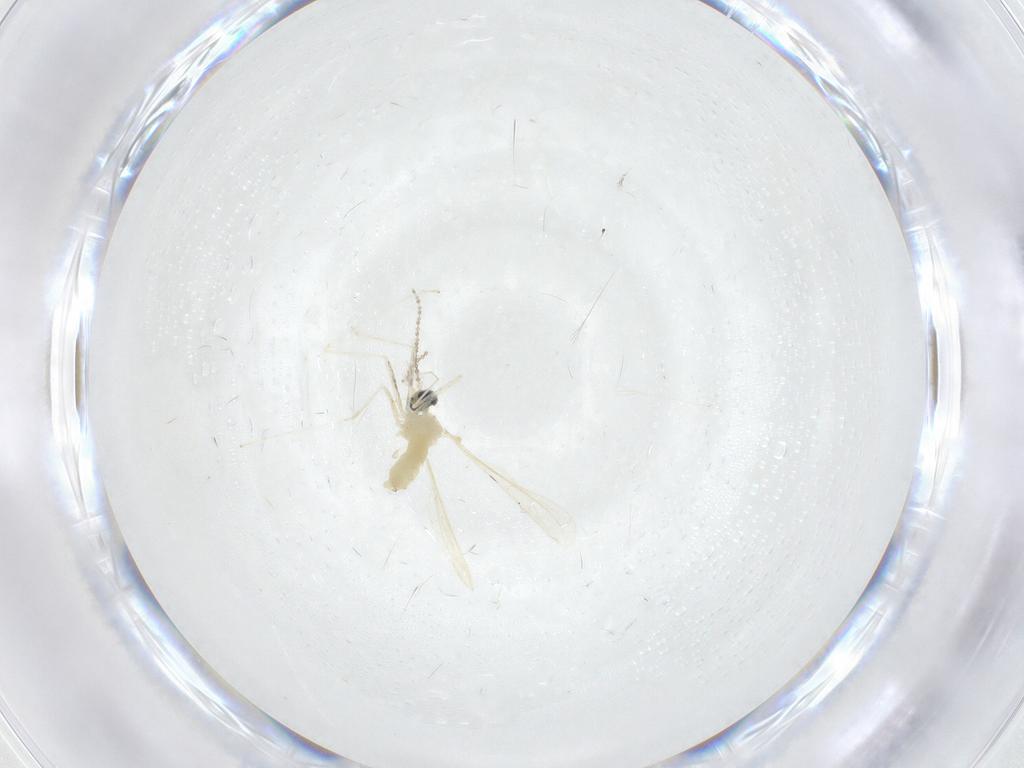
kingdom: Animalia
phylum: Arthropoda
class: Insecta
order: Diptera
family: Cecidomyiidae
